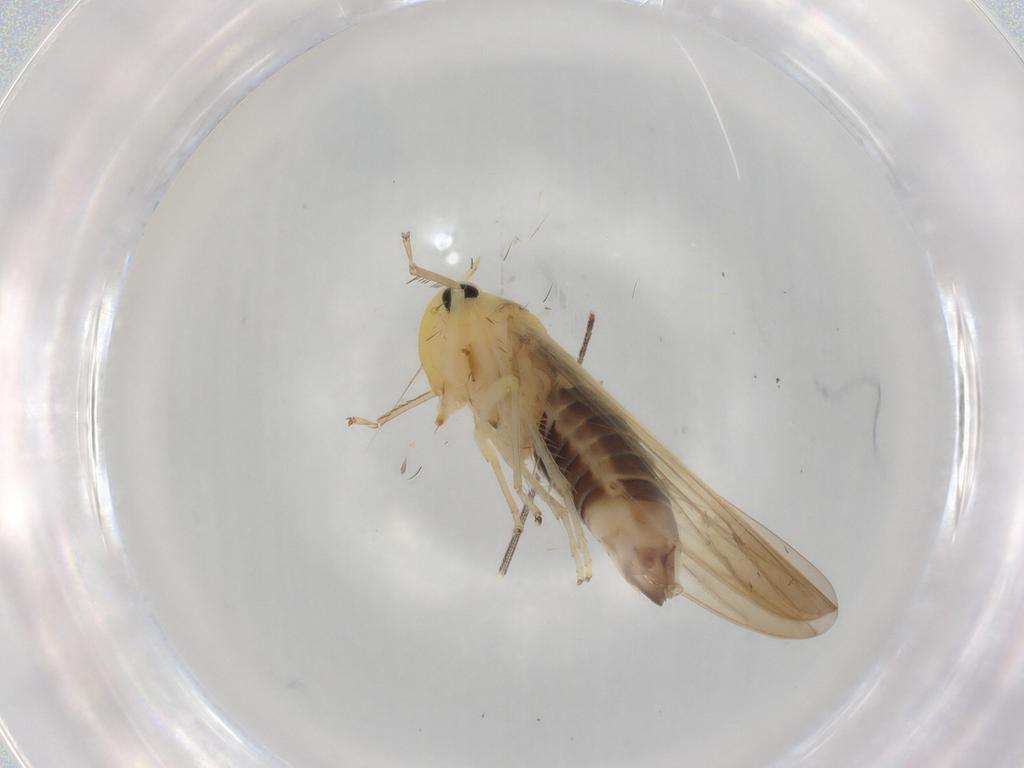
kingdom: Animalia
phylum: Arthropoda
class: Insecta
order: Hemiptera
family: Cicadellidae
